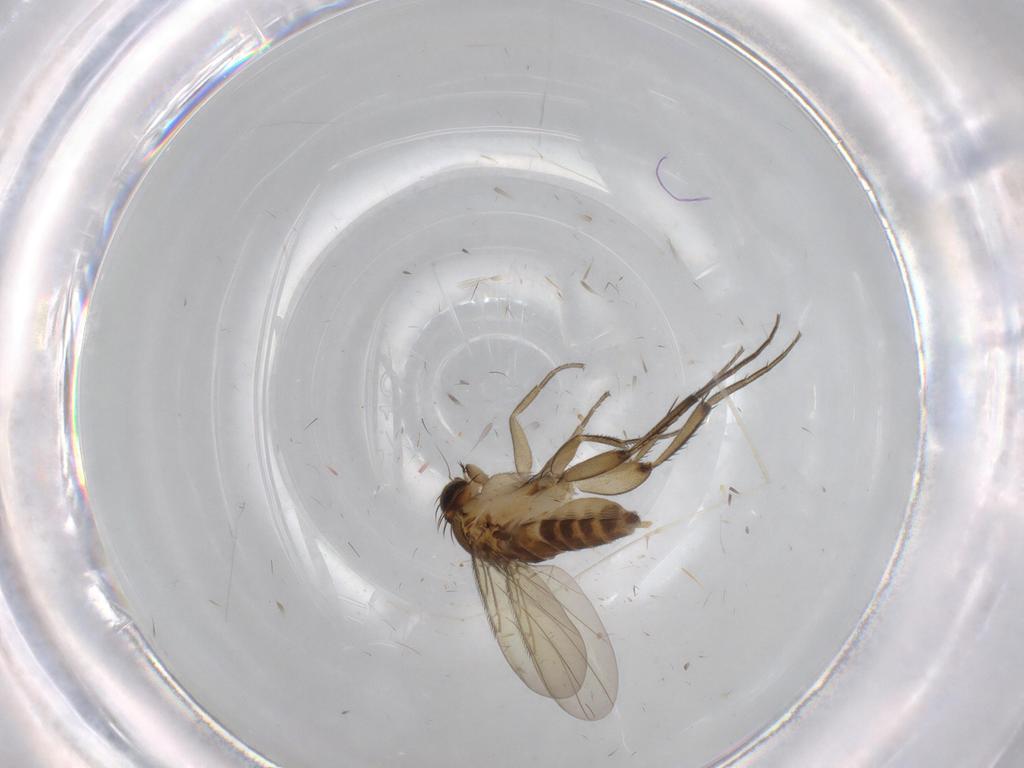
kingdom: Animalia
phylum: Arthropoda
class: Insecta
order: Diptera
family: Phoridae
